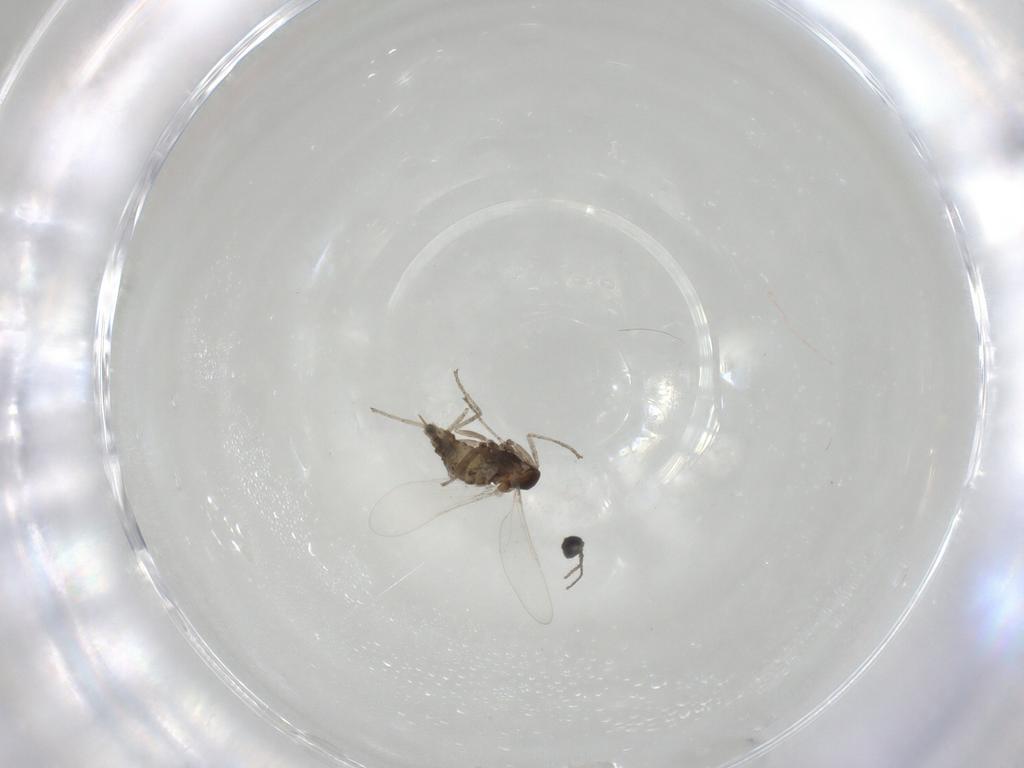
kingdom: Animalia
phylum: Arthropoda
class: Insecta
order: Diptera
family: Cecidomyiidae
